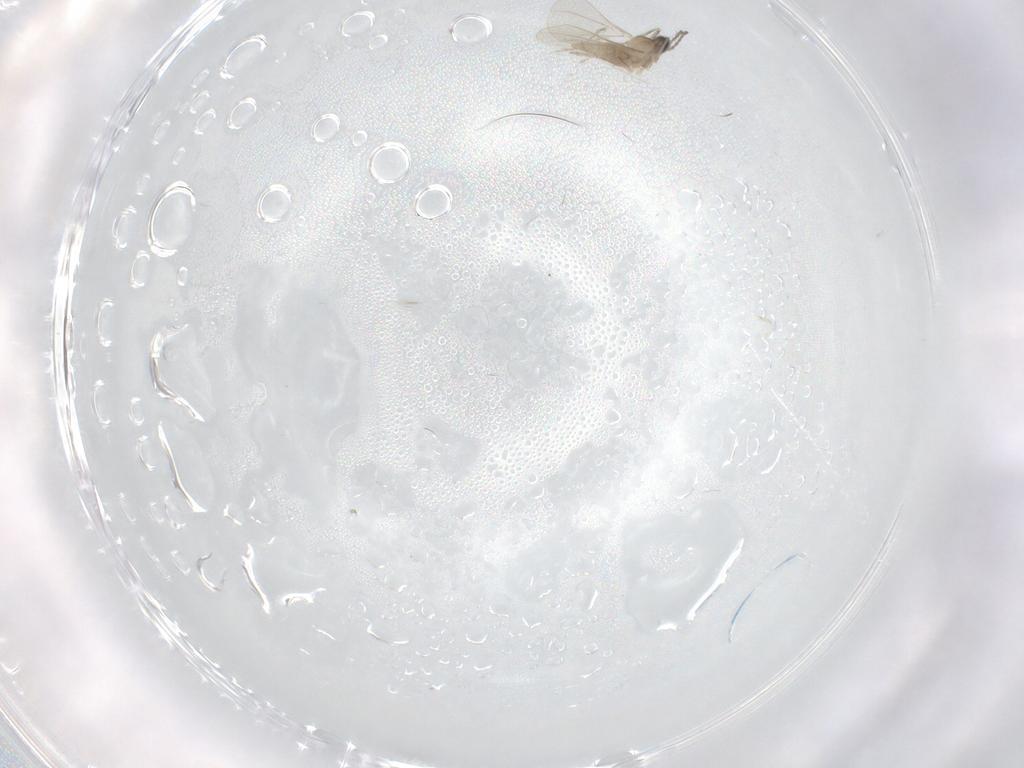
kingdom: Animalia
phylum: Arthropoda
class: Insecta
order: Diptera
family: Cecidomyiidae
